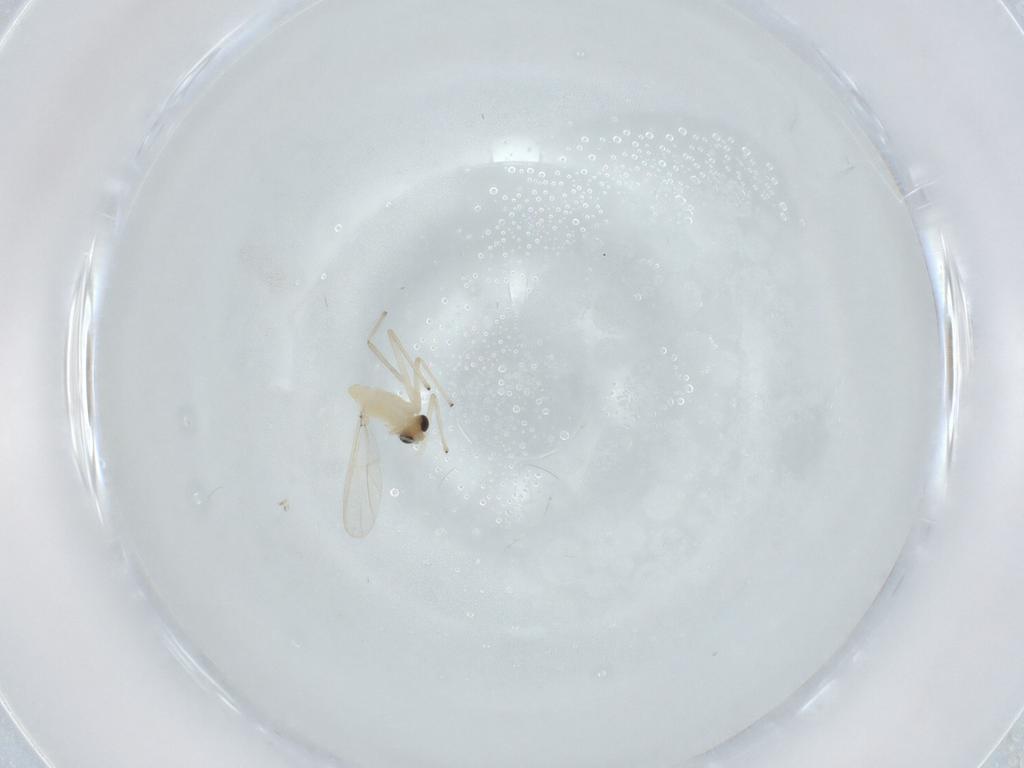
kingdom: Animalia
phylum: Arthropoda
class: Insecta
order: Diptera
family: Chironomidae
